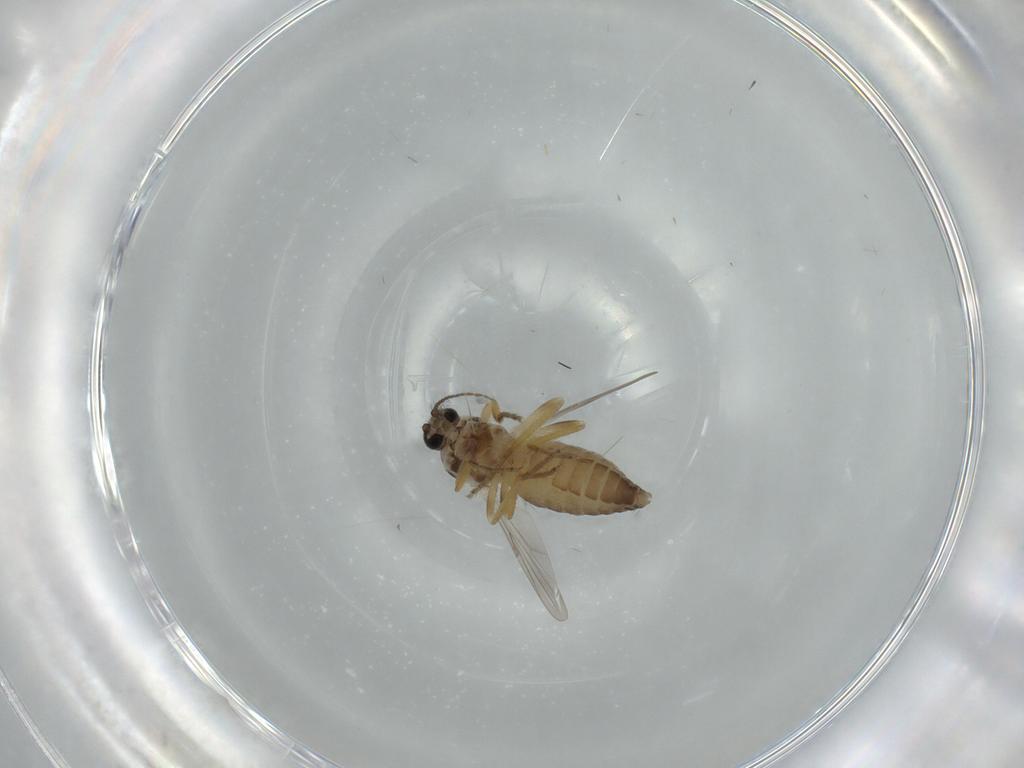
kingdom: Animalia
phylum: Arthropoda
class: Insecta
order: Diptera
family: Ceratopogonidae
